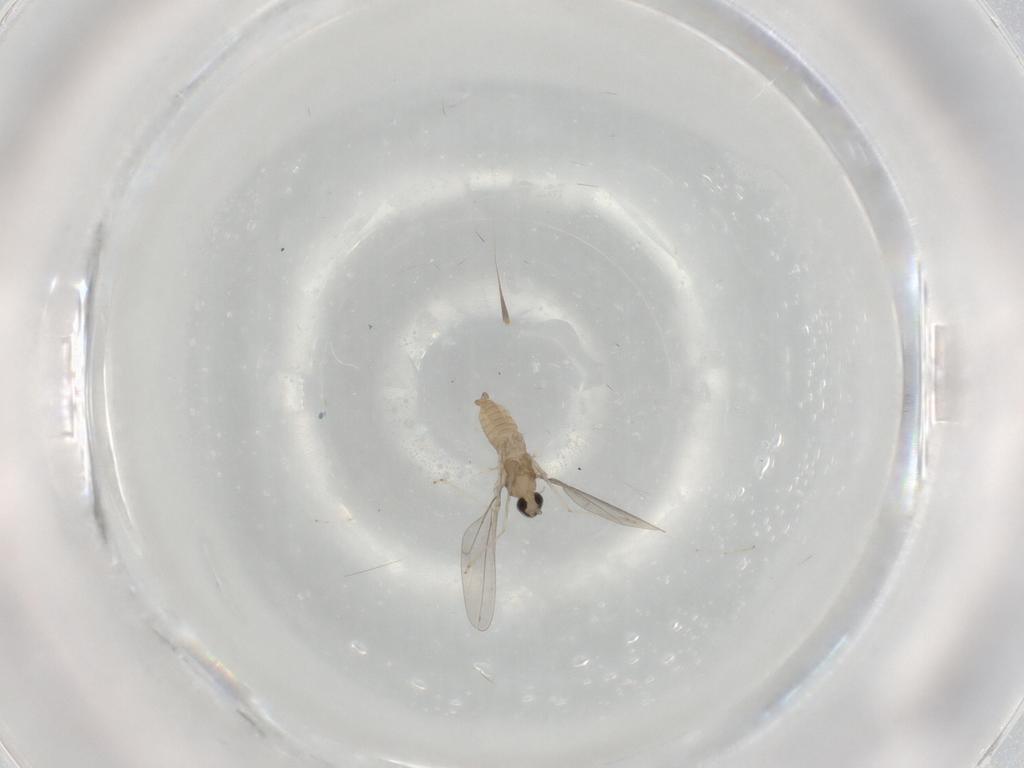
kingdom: Animalia
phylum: Arthropoda
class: Insecta
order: Diptera
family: Cecidomyiidae
